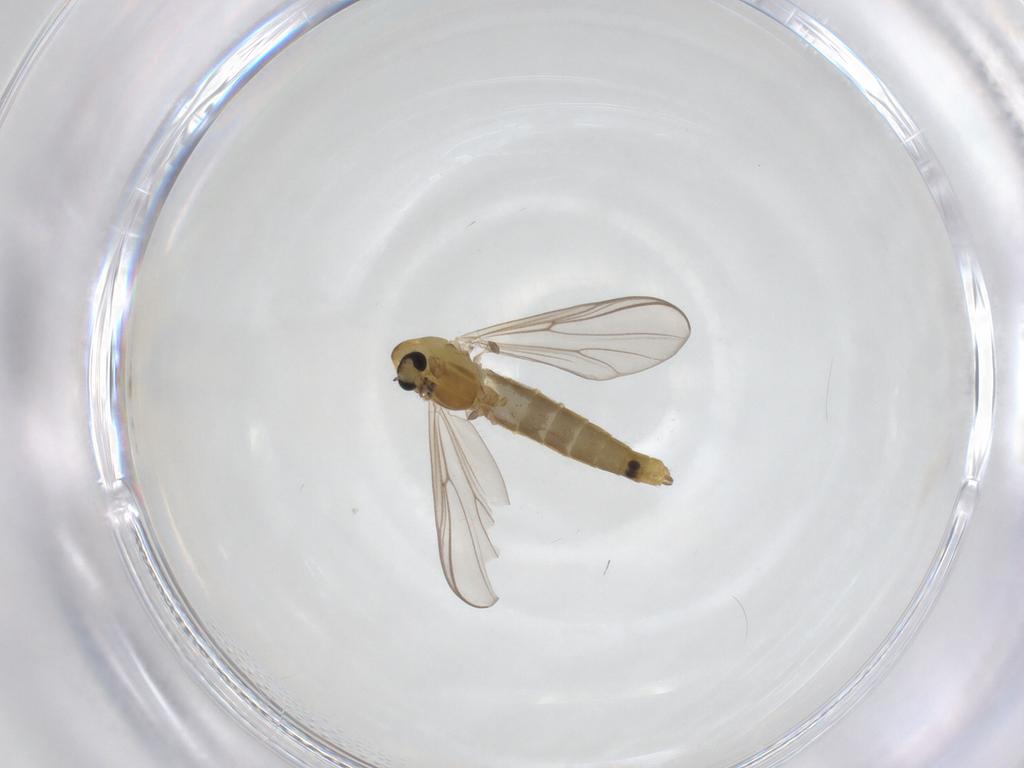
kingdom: Animalia
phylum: Arthropoda
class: Insecta
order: Diptera
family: Chironomidae
